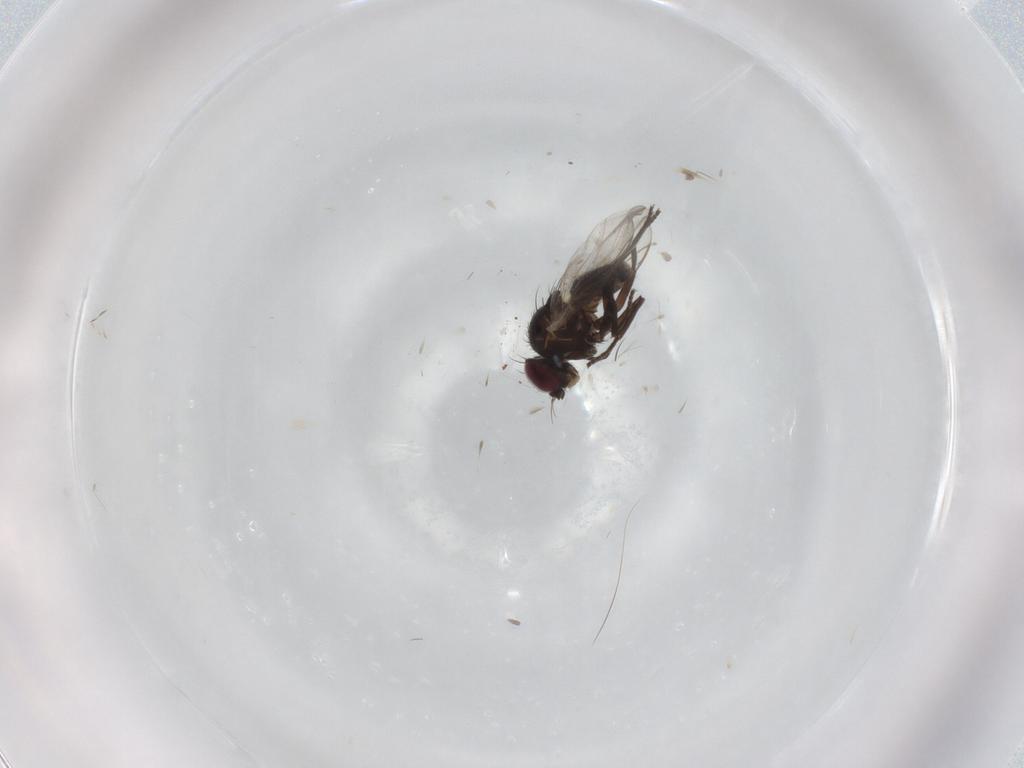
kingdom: Animalia
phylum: Arthropoda
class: Insecta
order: Diptera
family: Agromyzidae
